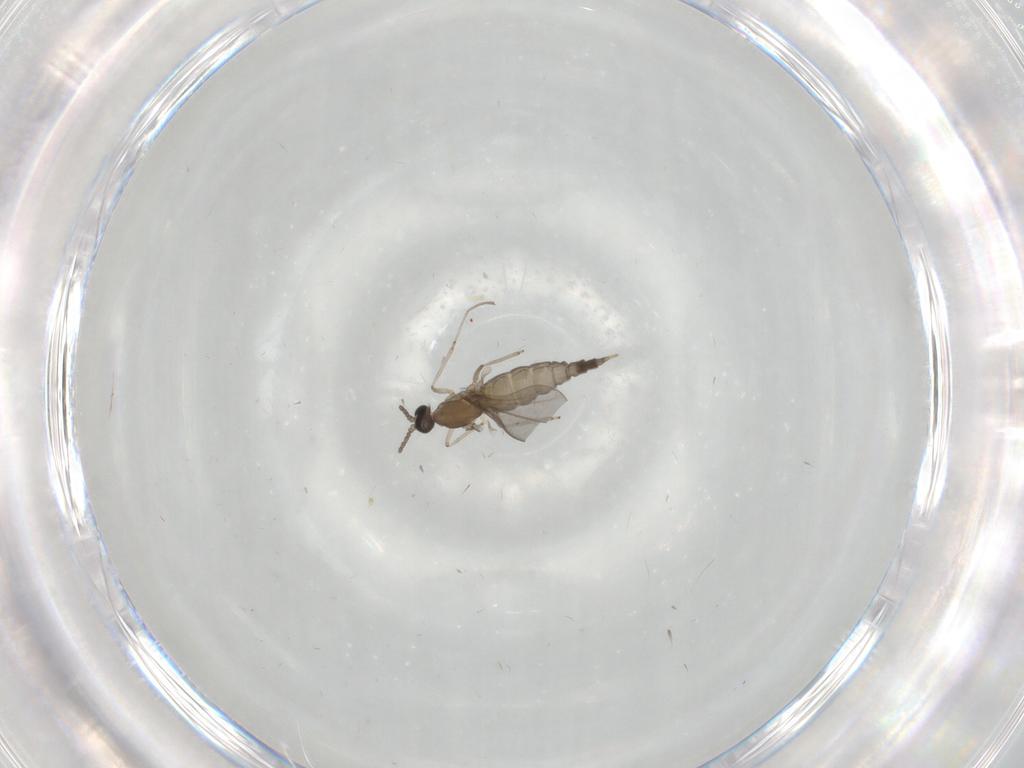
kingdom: Animalia
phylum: Arthropoda
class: Insecta
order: Diptera
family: Cecidomyiidae
